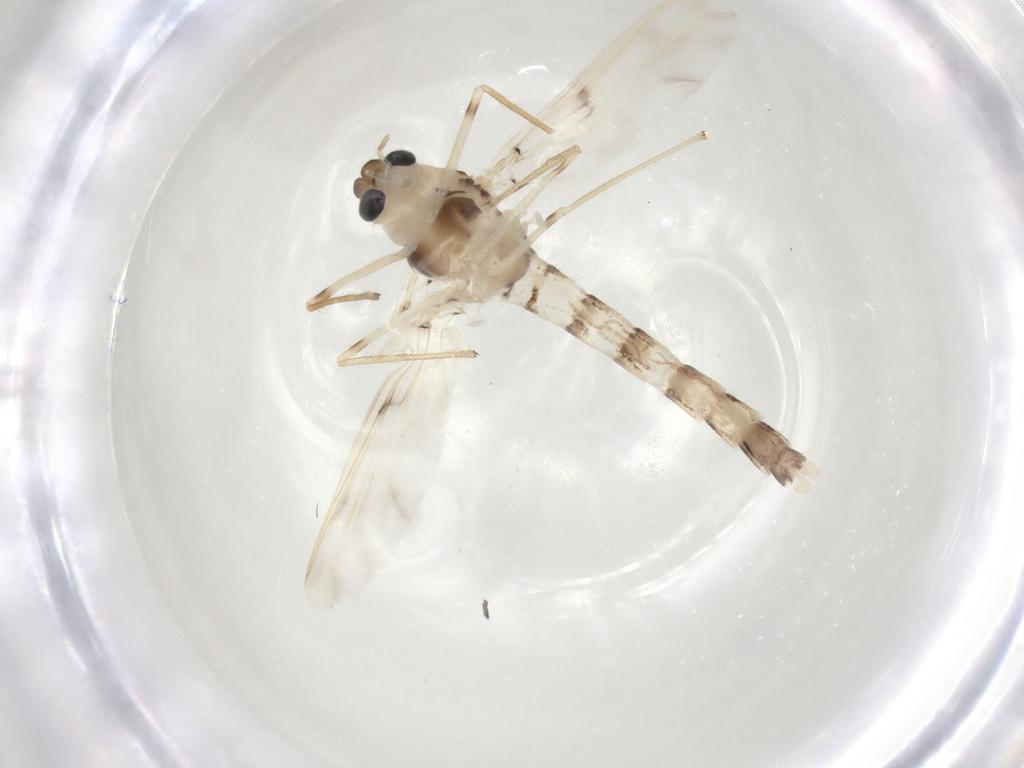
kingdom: Animalia
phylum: Arthropoda
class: Insecta
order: Diptera
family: Chironomidae
